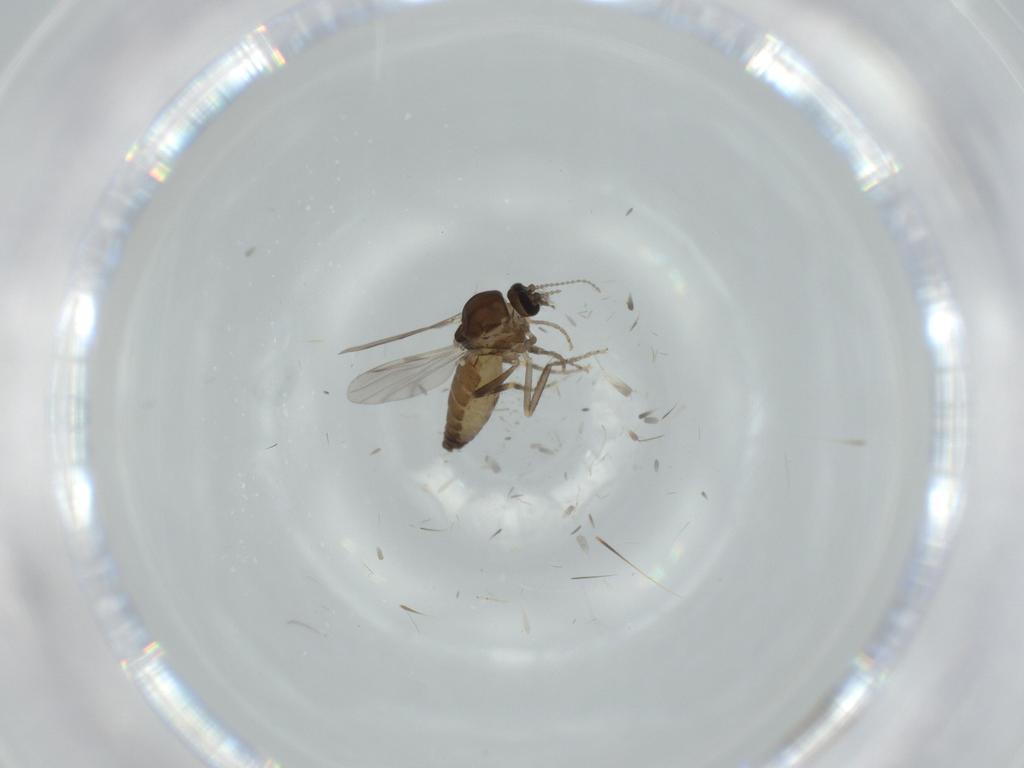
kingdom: Animalia
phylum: Arthropoda
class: Insecta
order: Diptera
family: Ceratopogonidae
